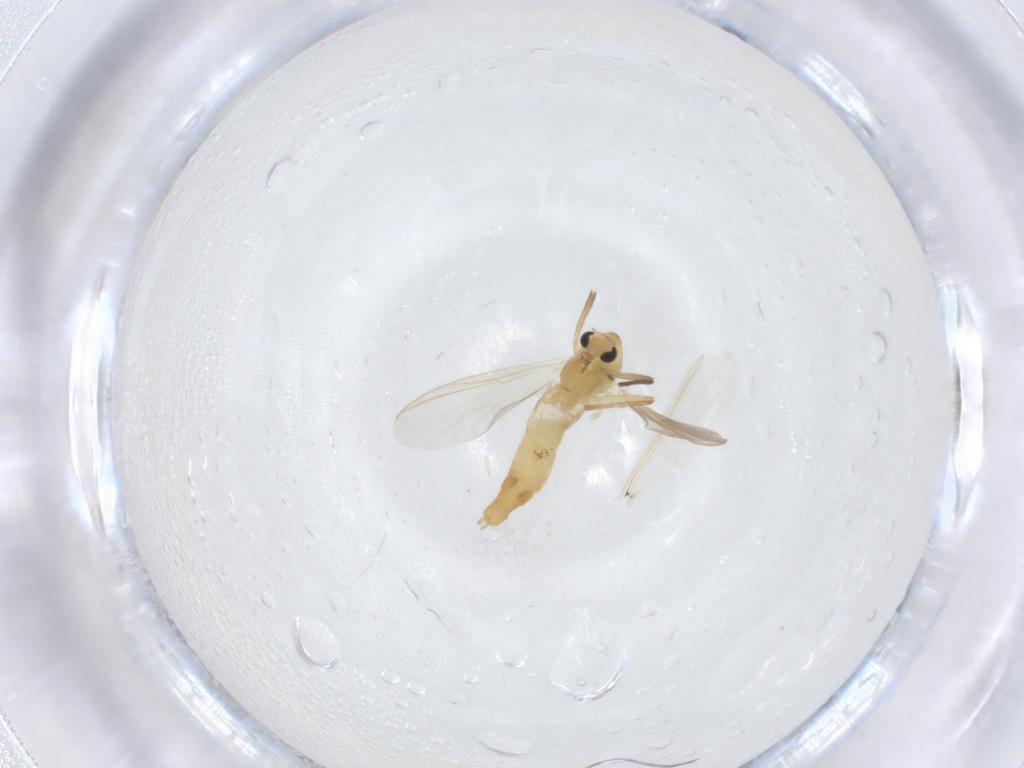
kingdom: Animalia
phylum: Arthropoda
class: Insecta
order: Diptera
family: Chironomidae
